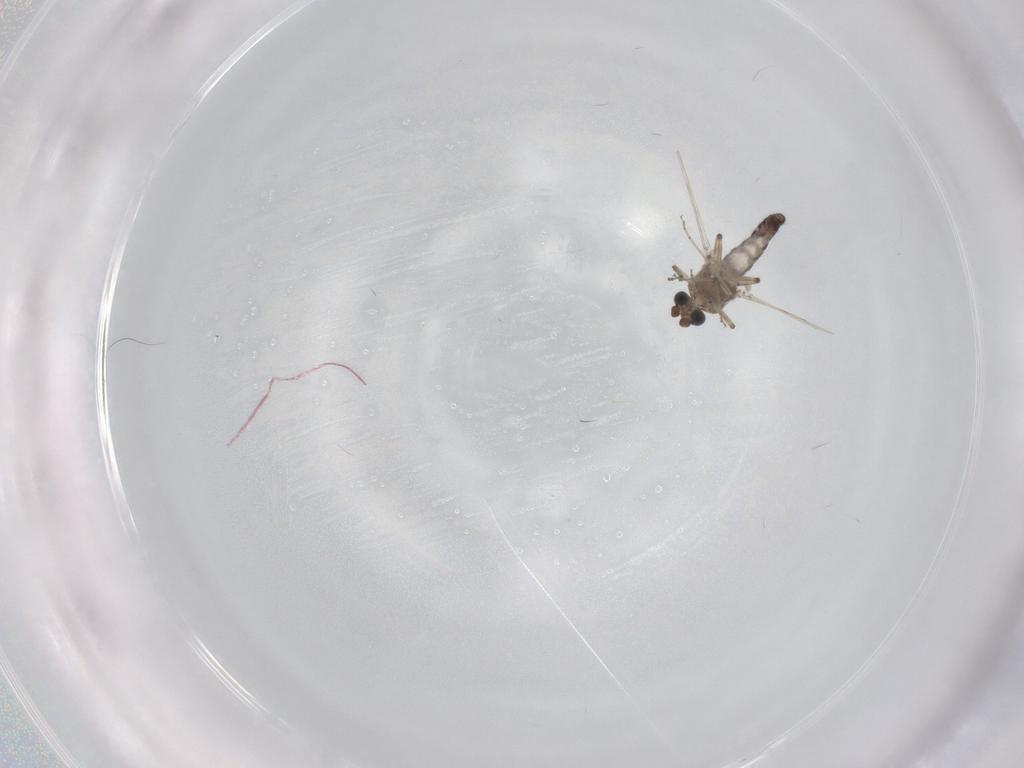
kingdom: Animalia
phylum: Arthropoda
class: Insecta
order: Diptera
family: Ceratopogonidae
